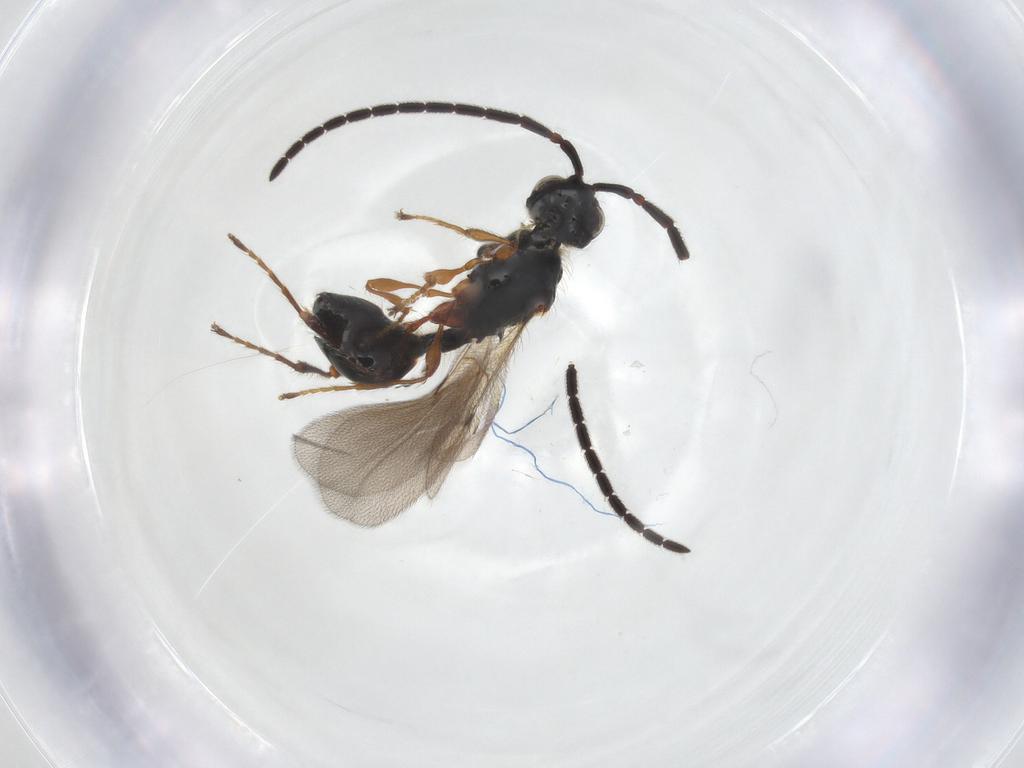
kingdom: Animalia
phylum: Arthropoda
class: Insecta
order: Hymenoptera
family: Diapriidae
